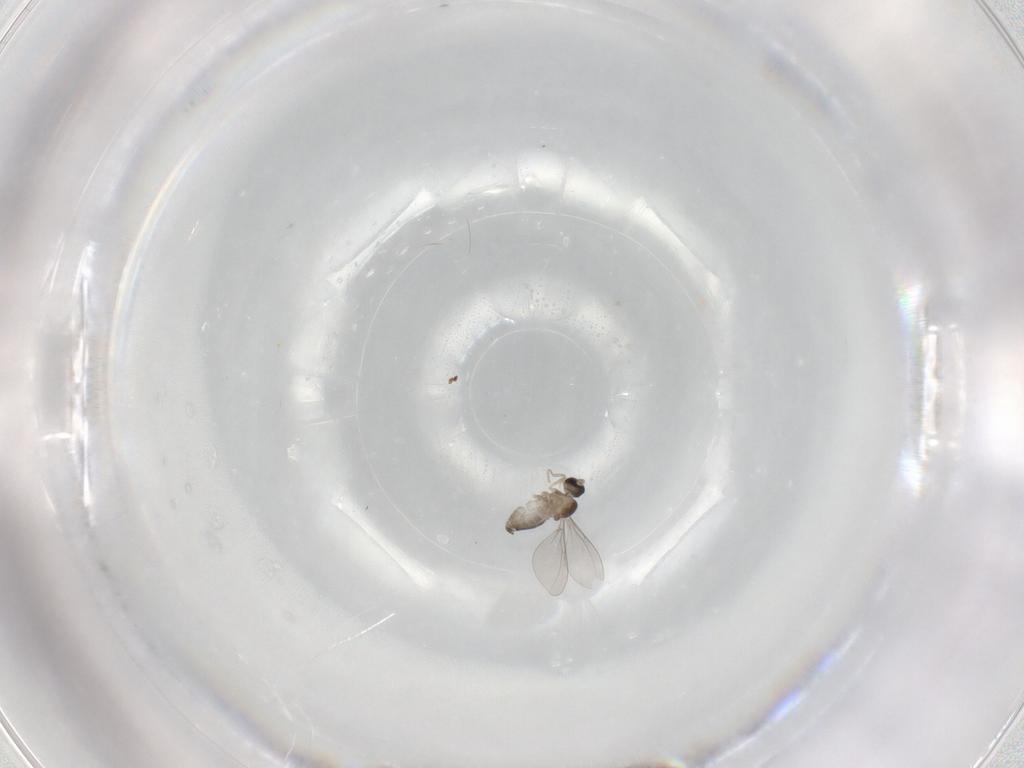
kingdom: Animalia
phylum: Arthropoda
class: Insecta
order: Diptera
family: Cecidomyiidae
